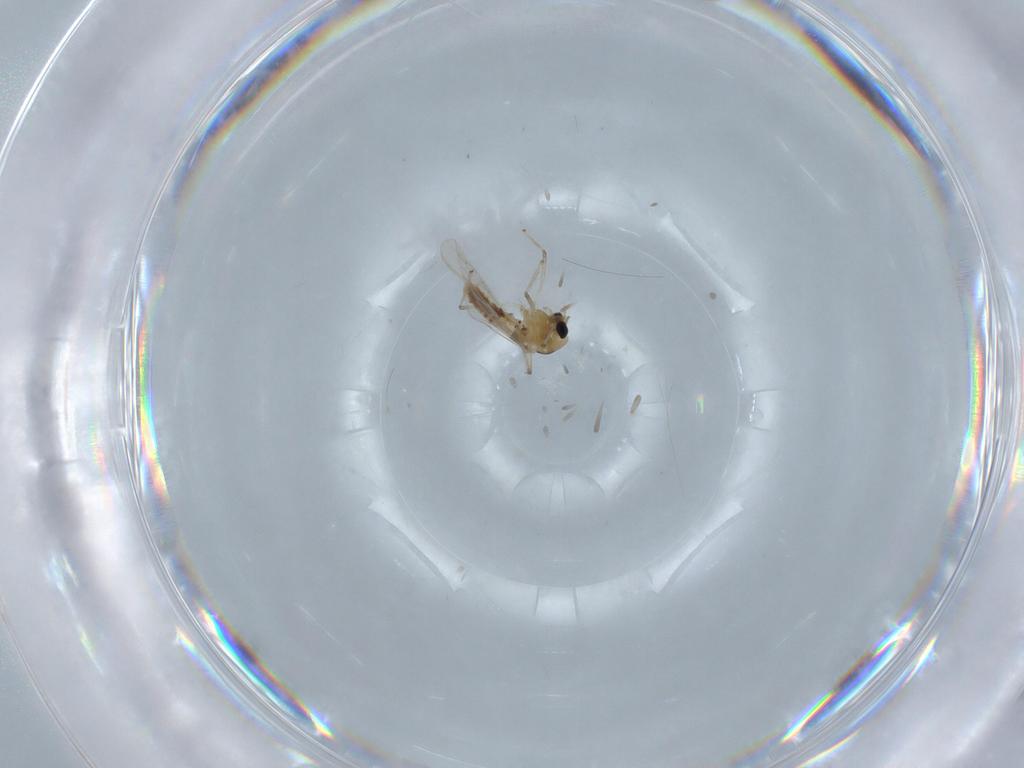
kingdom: Animalia
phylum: Arthropoda
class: Insecta
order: Diptera
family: Chironomidae
